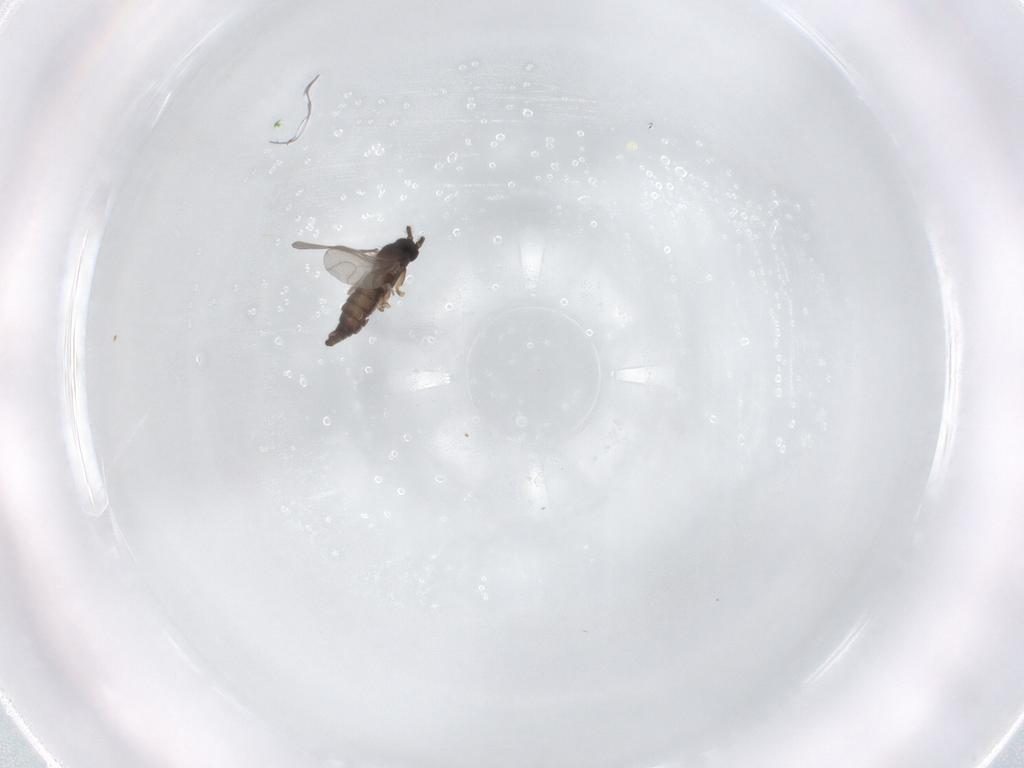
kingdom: Animalia
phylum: Arthropoda
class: Insecta
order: Diptera
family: Sciaridae
